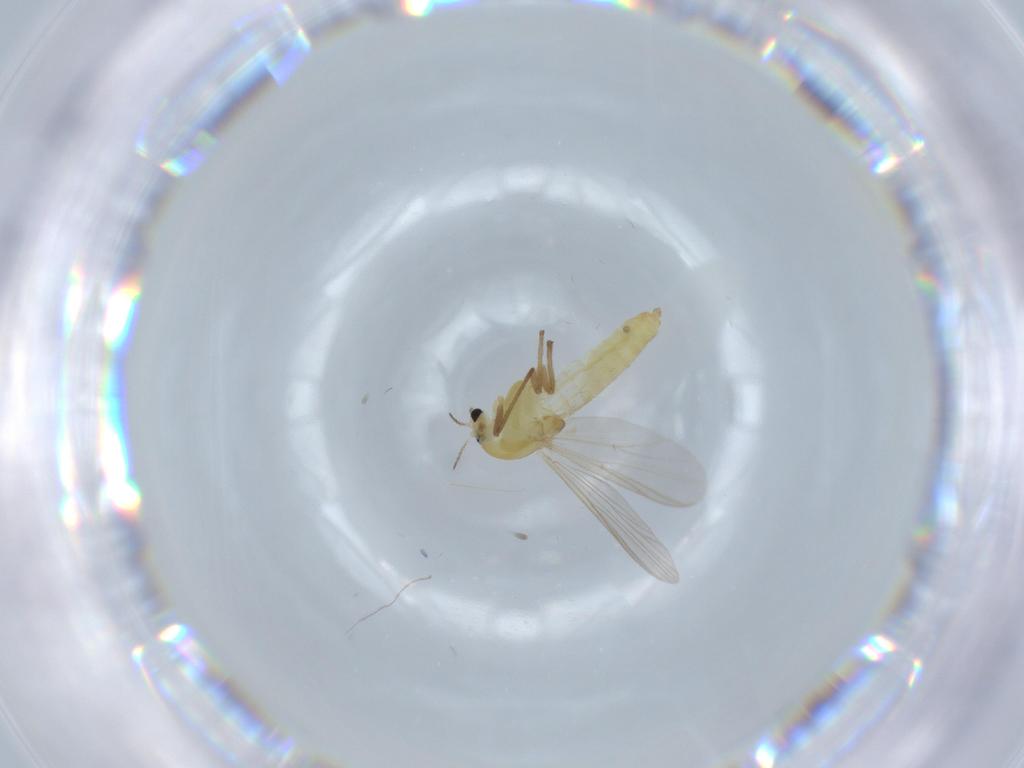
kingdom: Animalia
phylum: Arthropoda
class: Insecta
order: Diptera
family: Chironomidae
